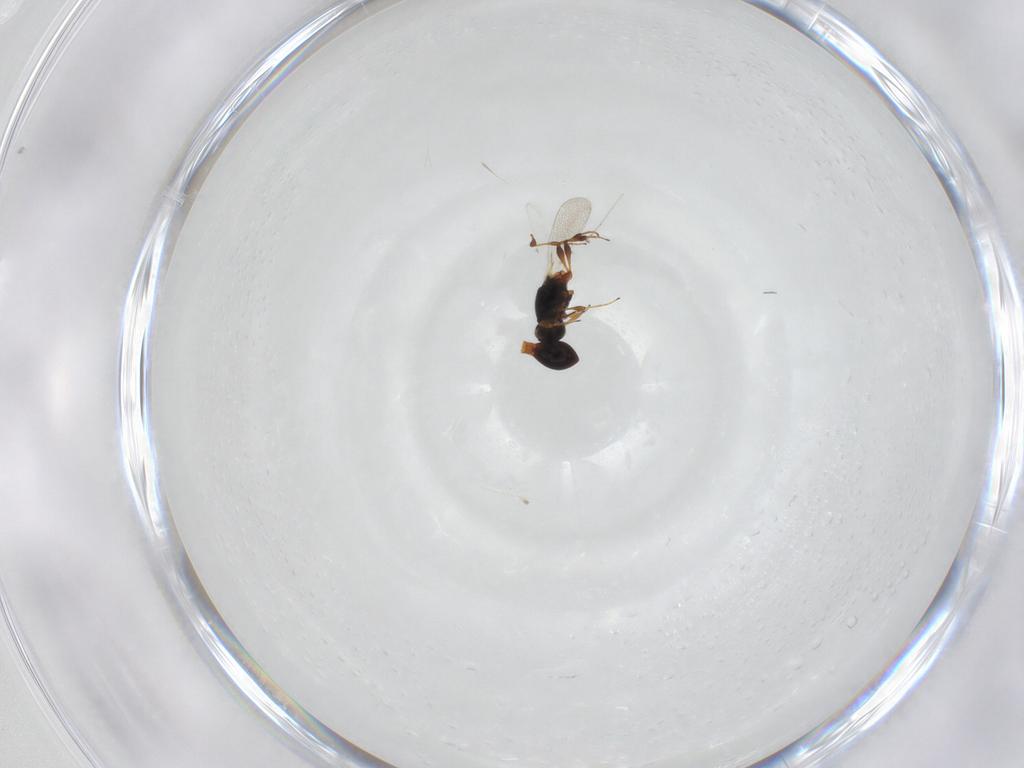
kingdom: Animalia
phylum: Arthropoda
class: Insecta
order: Hymenoptera
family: Platygastridae
